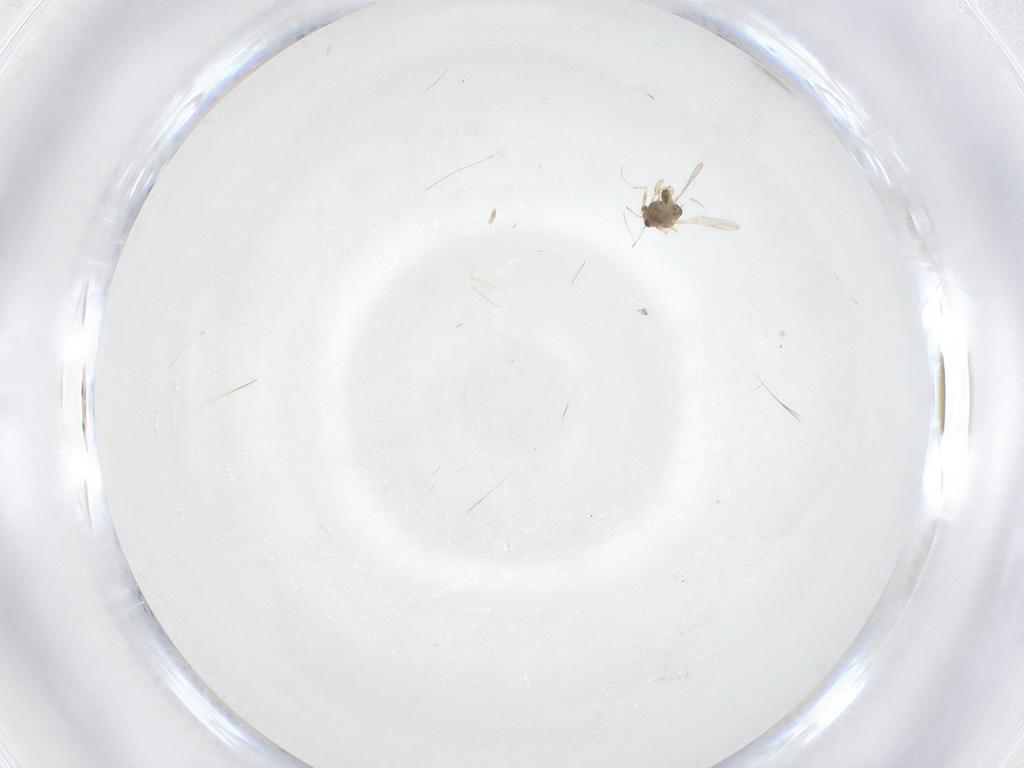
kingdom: Animalia
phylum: Arthropoda
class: Insecta
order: Diptera
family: Chironomidae
